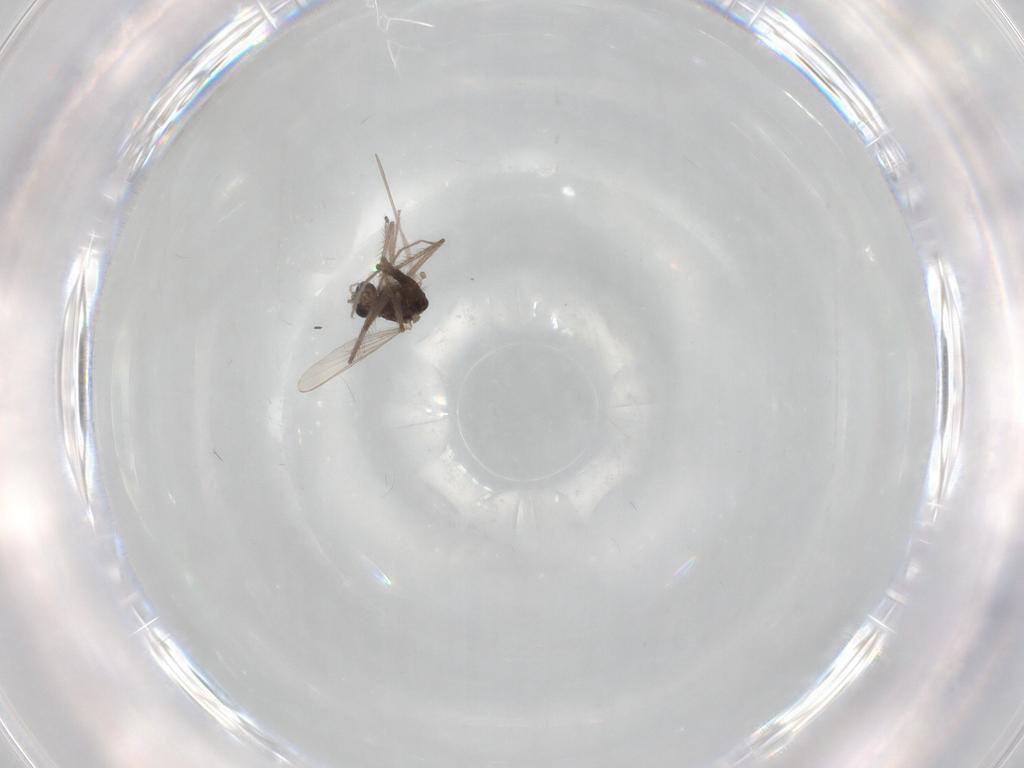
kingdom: Animalia
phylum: Arthropoda
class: Insecta
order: Diptera
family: Chironomidae
